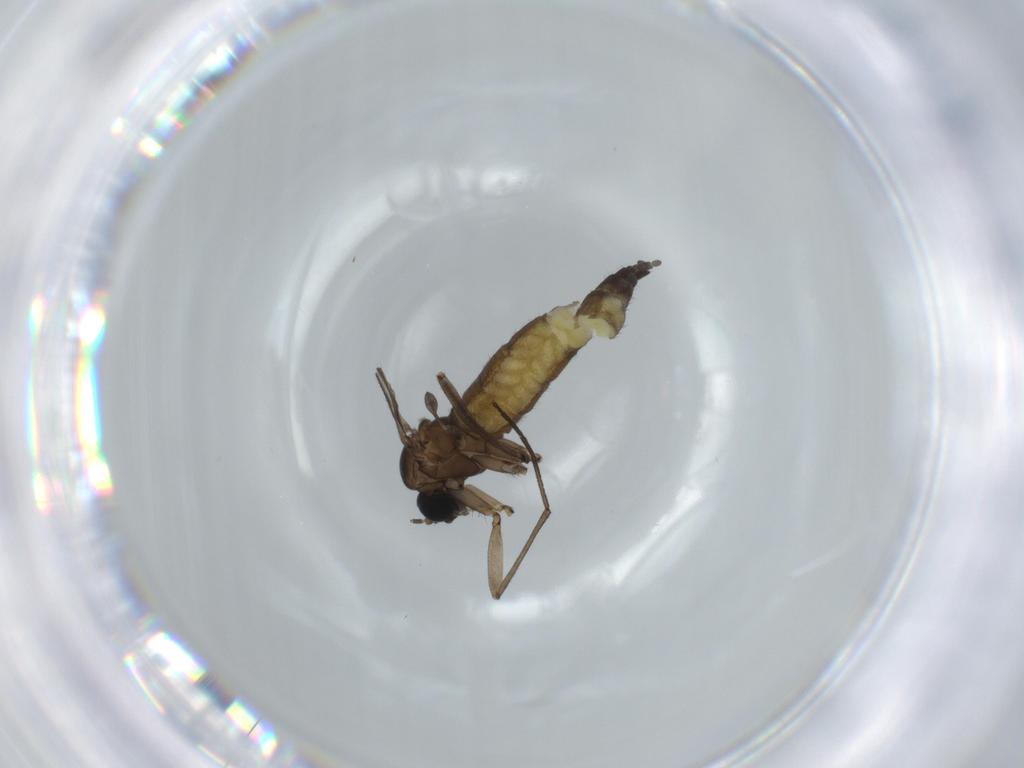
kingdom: Animalia
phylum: Arthropoda
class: Insecta
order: Diptera
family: Sciaridae
